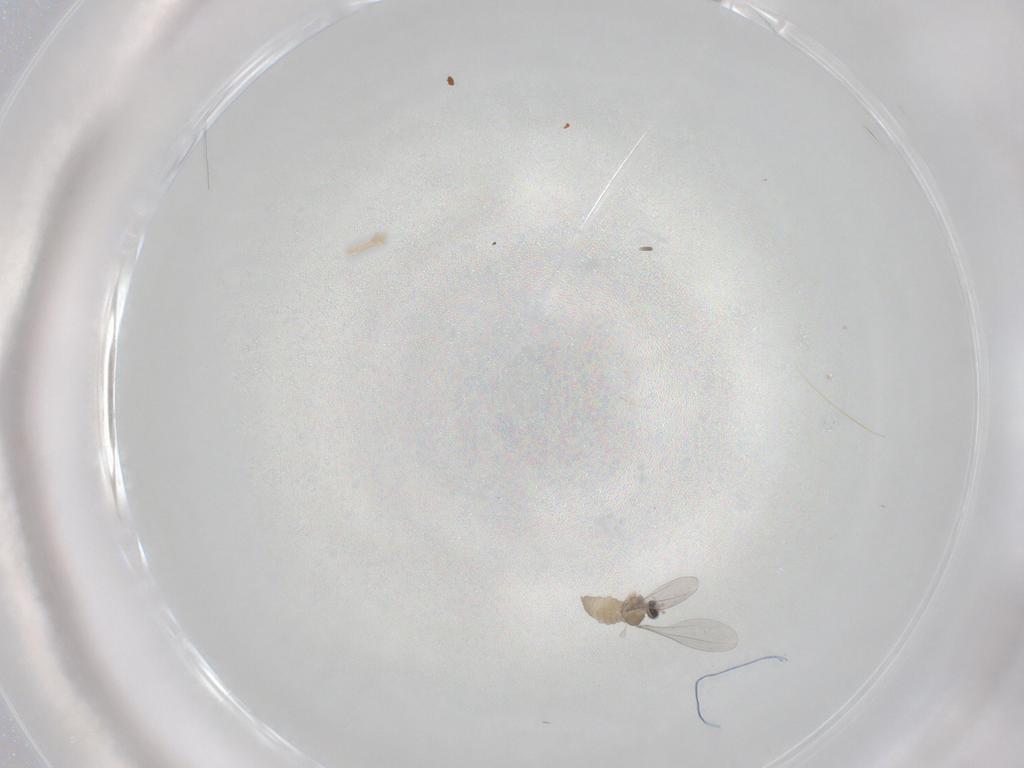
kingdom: Animalia
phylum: Arthropoda
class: Insecta
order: Diptera
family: Cecidomyiidae
